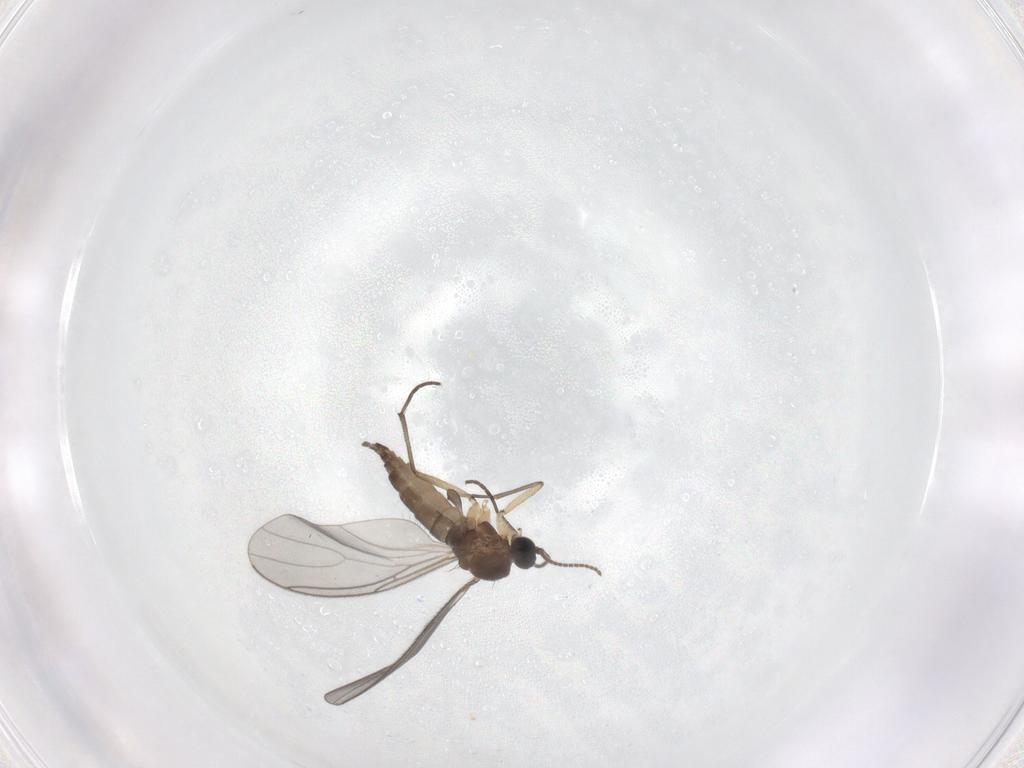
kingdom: Animalia
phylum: Arthropoda
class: Insecta
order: Diptera
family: Sciaridae
